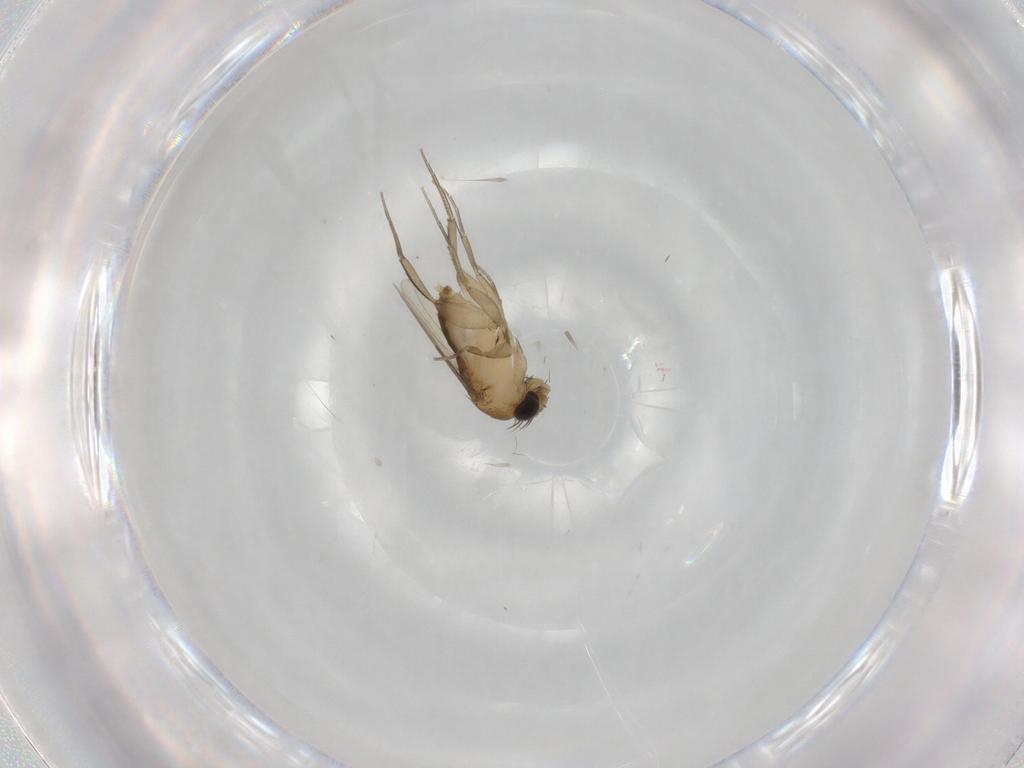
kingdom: Animalia
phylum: Arthropoda
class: Insecta
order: Diptera
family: Phoridae
